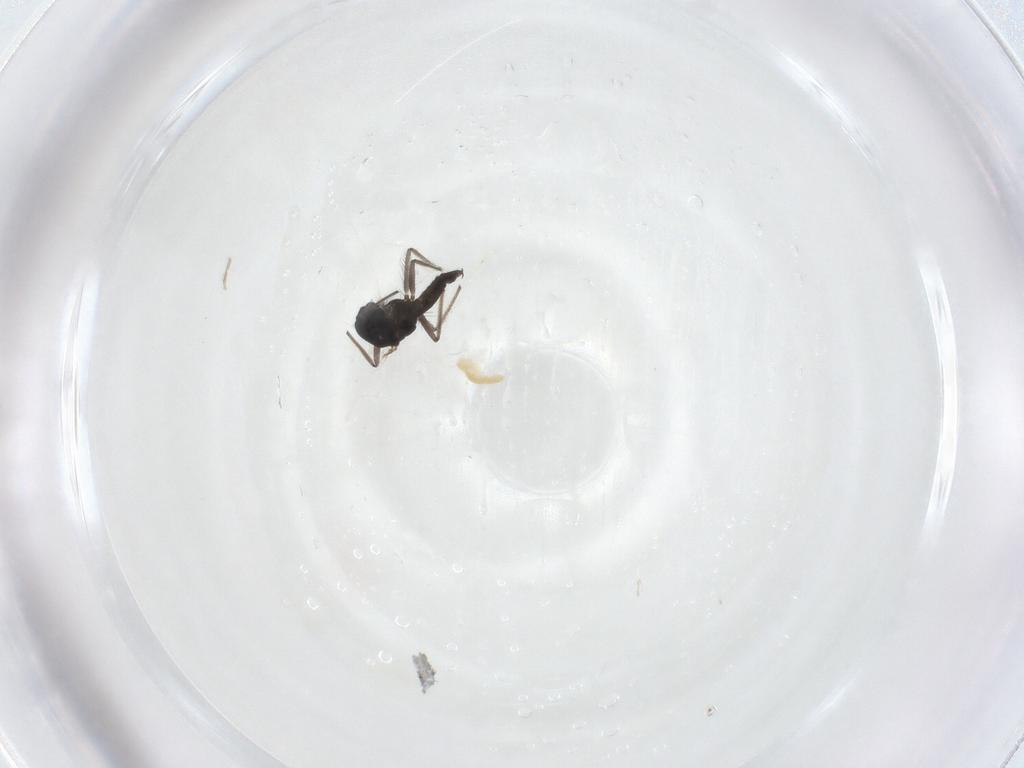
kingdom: Animalia
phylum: Arthropoda
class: Insecta
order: Diptera
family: Chironomidae
